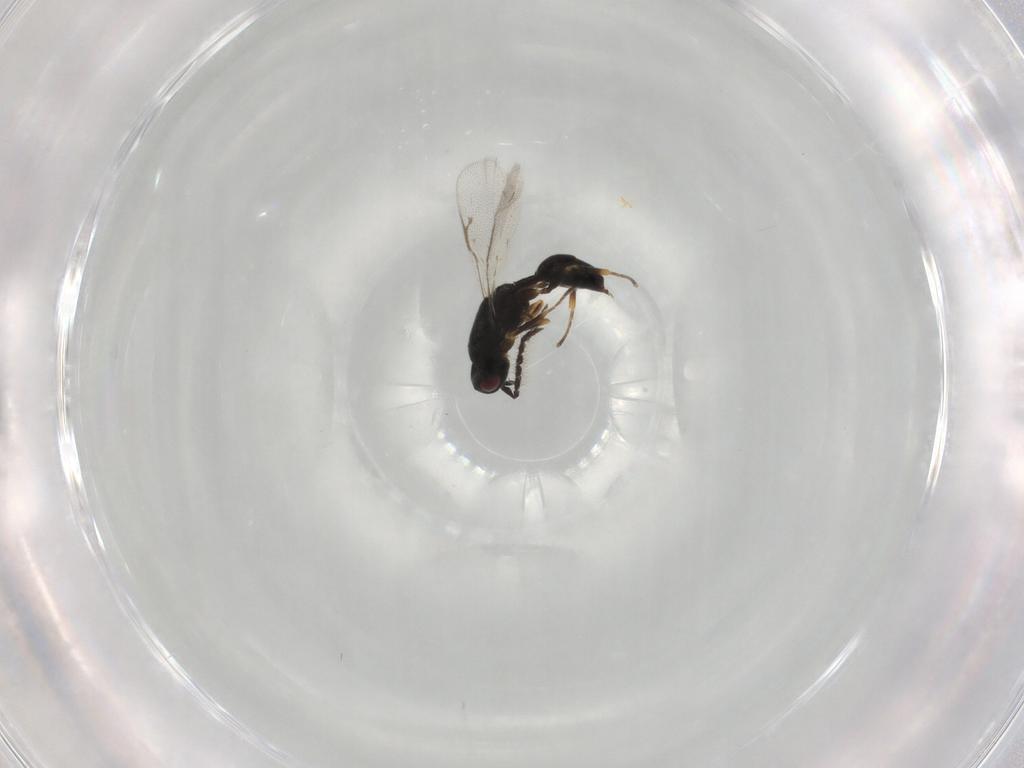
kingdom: Animalia
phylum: Arthropoda
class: Insecta
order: Hymenoptera
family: Eurytomidae
